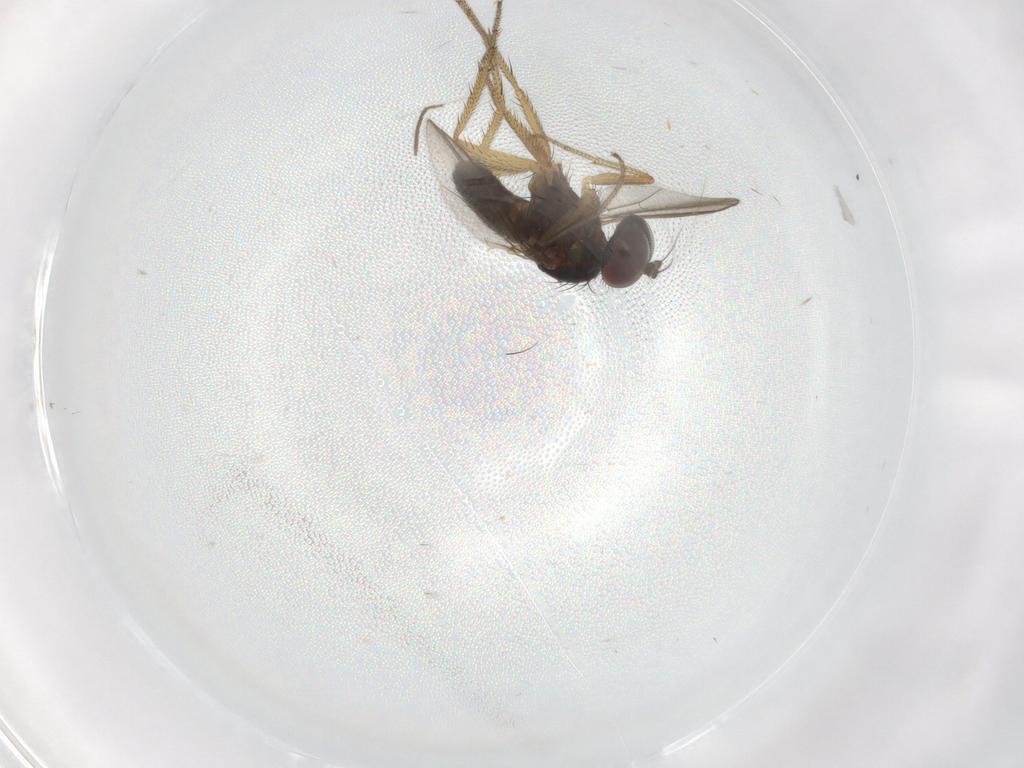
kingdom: Animalia
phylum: Arthropoda
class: Insecta
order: Diptera
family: Chironomidae
